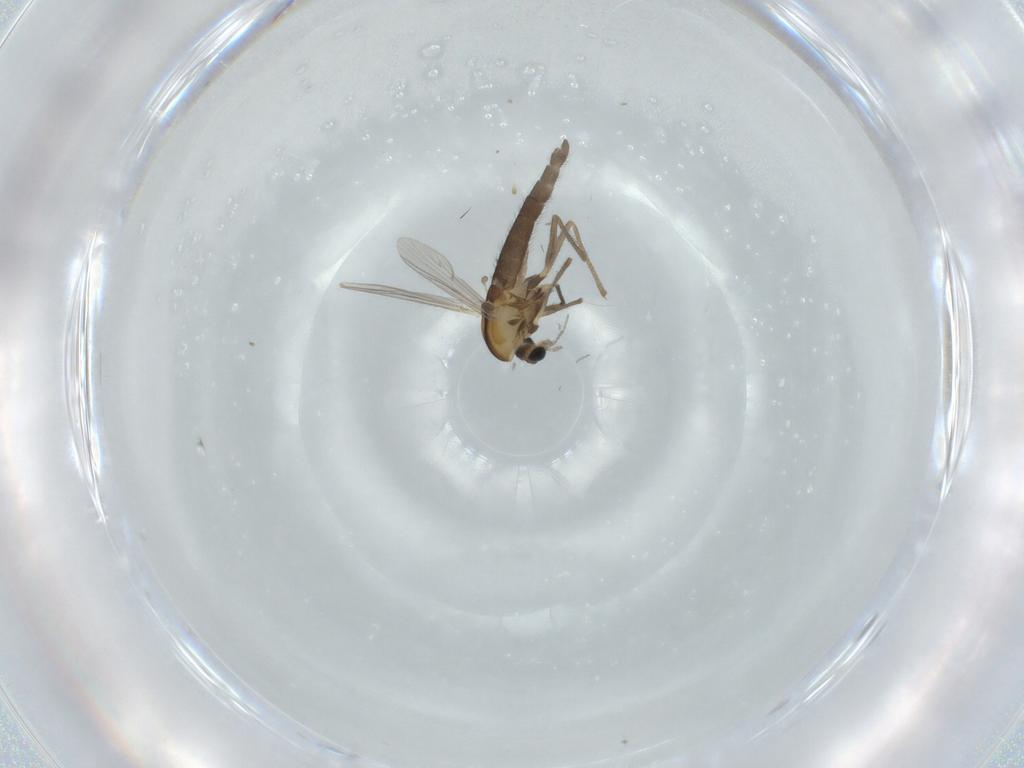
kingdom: Animalia
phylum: Arthropoda
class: Insecta
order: Diptera
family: Chironomidae
